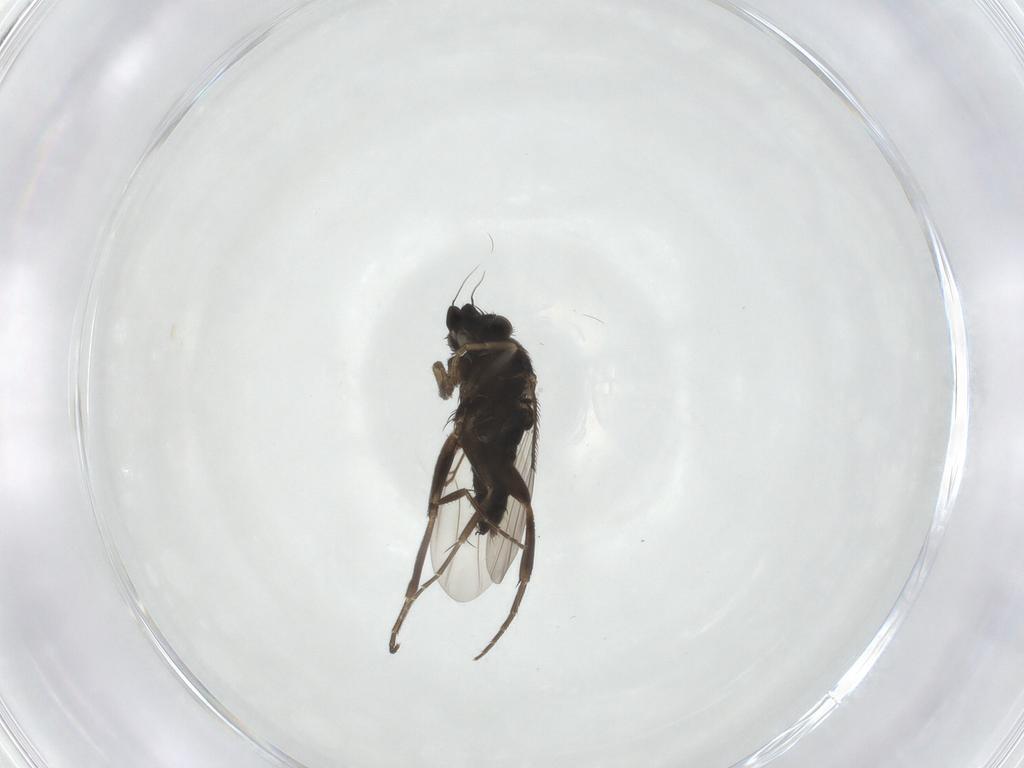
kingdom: Animalia
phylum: Arthropoda
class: Insecta
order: Diptera
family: Phoridae
